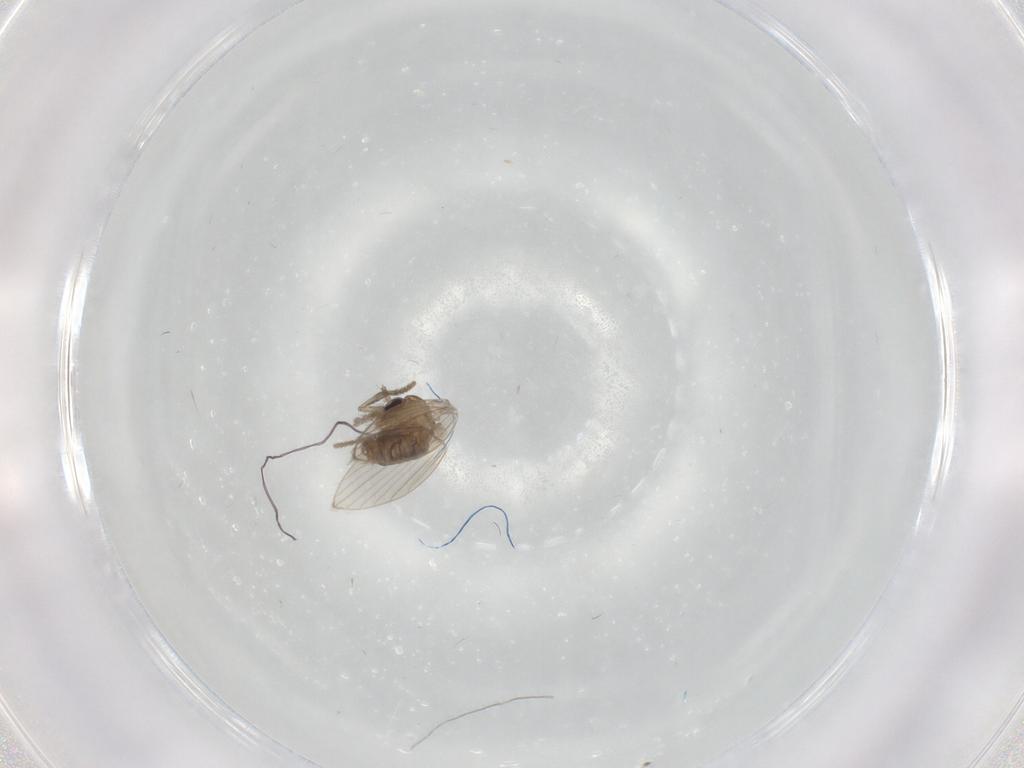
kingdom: Animalia
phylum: Arthropoda
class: Insecta
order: Diptera
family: Psychodidae
